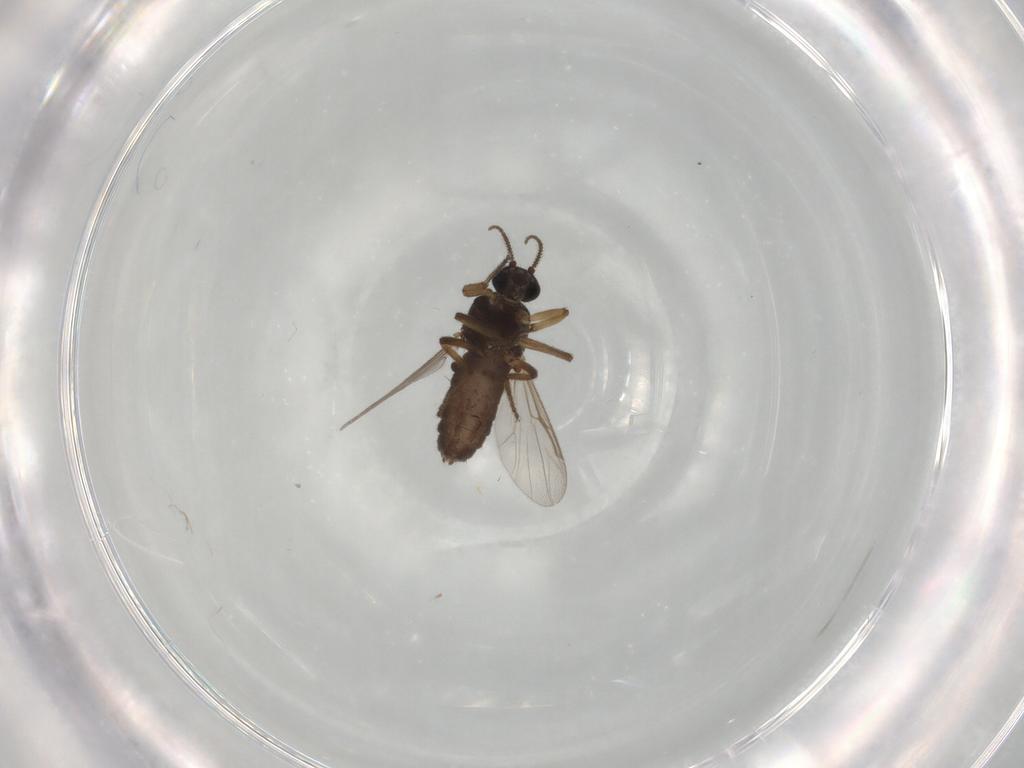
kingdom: Animalia
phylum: Arthropoda
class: Insecta
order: Diptera
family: Ceratopogonidae
